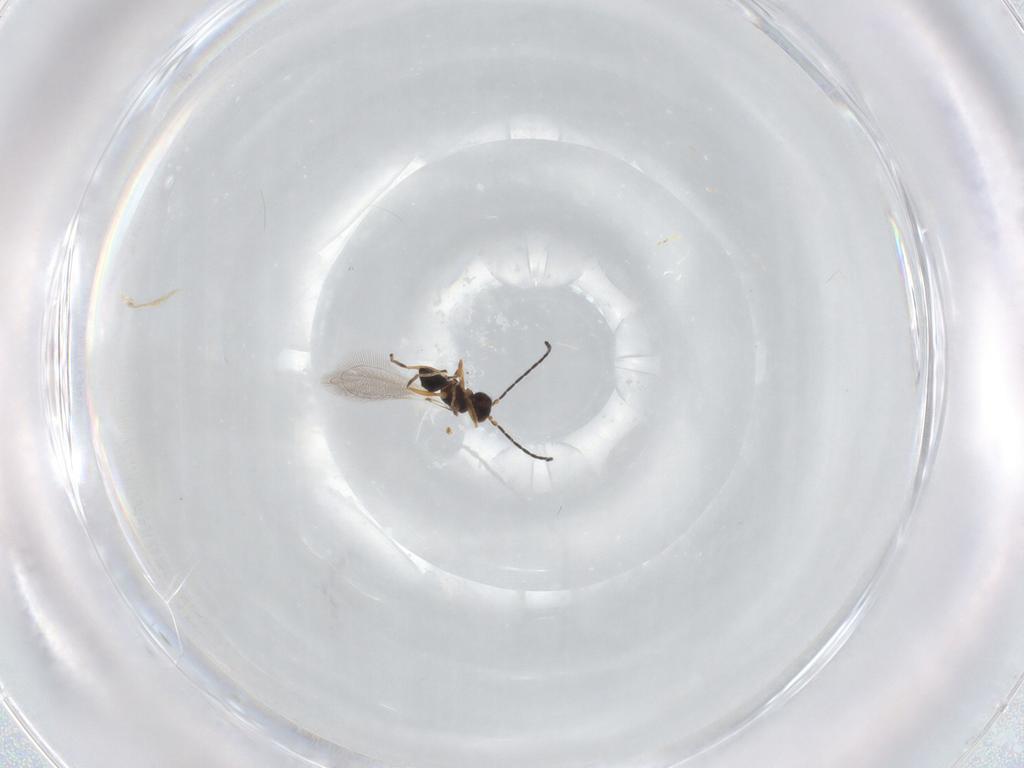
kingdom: Animalia
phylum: Arthropoda
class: Insecta
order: Hymenoptera
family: Mymaridae
